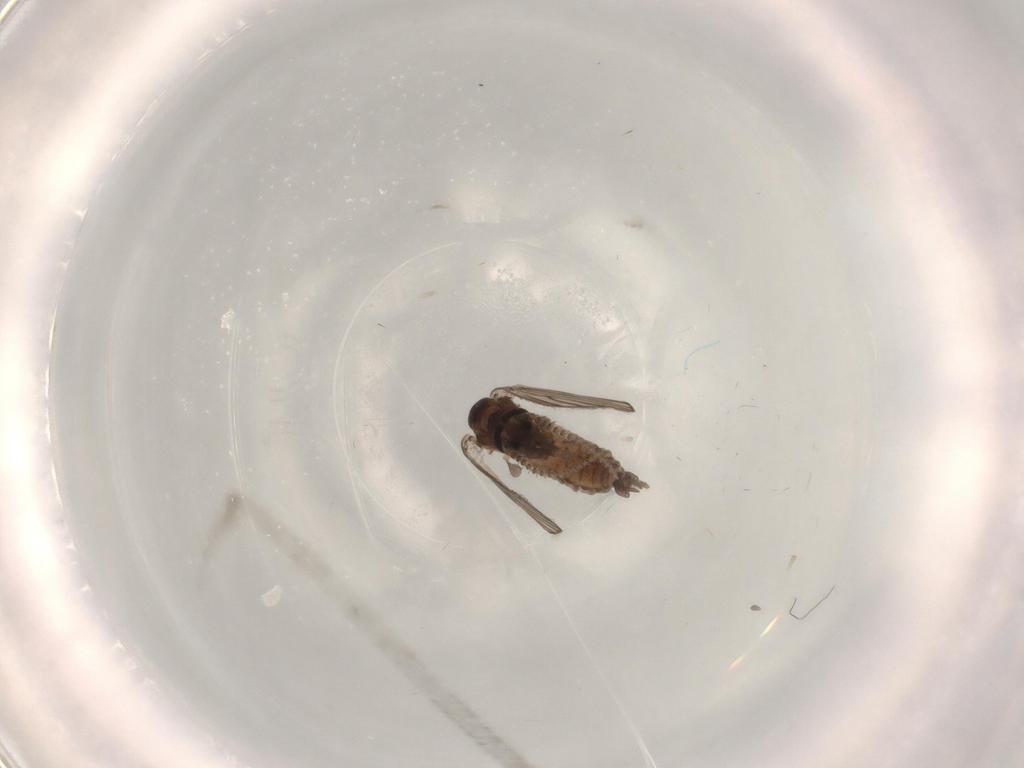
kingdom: Animalia
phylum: Arthropoda
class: Insecta
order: Diptera
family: Psychodidae
